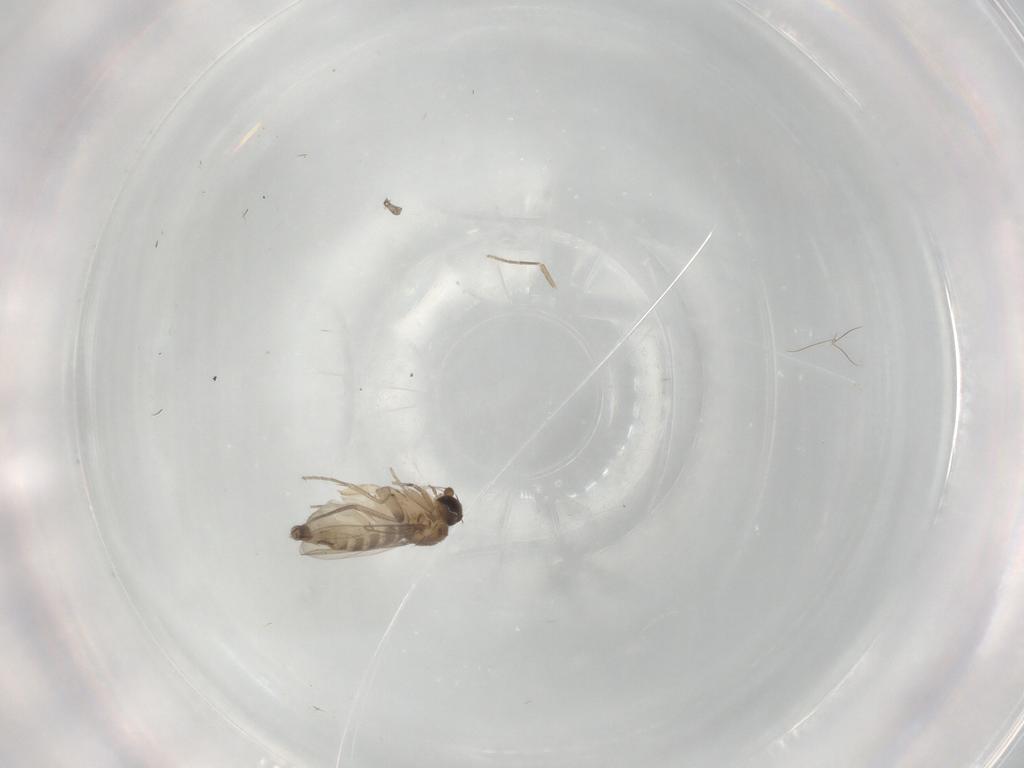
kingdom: Animalia
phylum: Arthropoda
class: Insecta
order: Diptera
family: Phoridae
